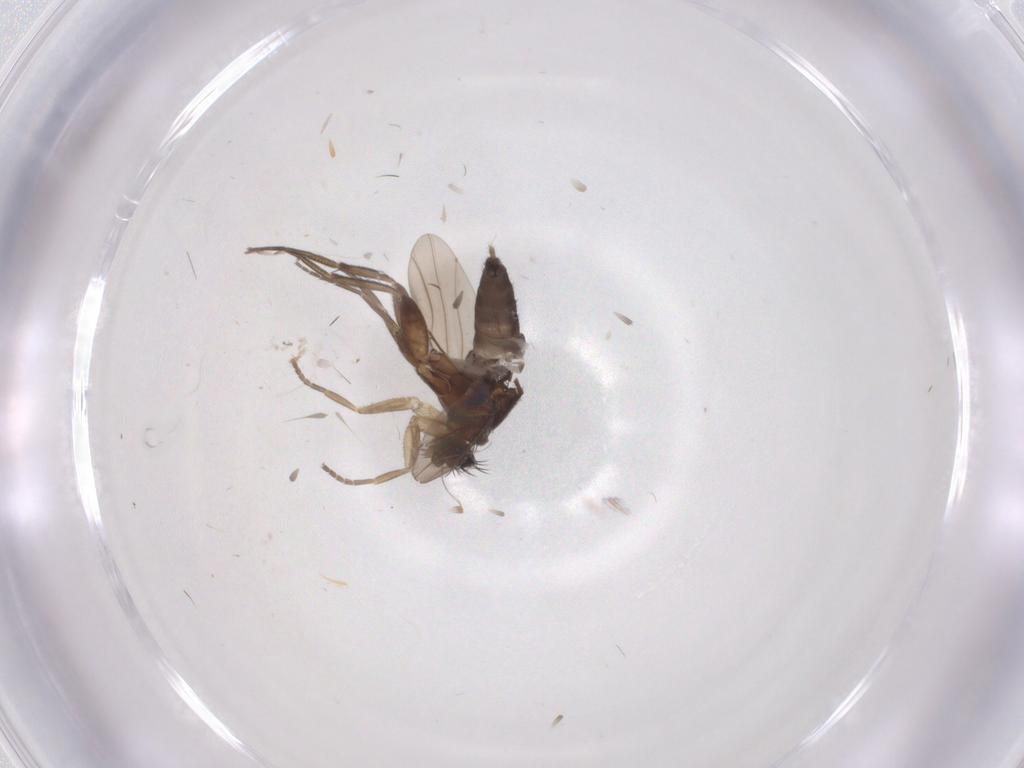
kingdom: Animalia
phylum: Arthropoda
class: Insecta
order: Diptera
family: Phoridae
